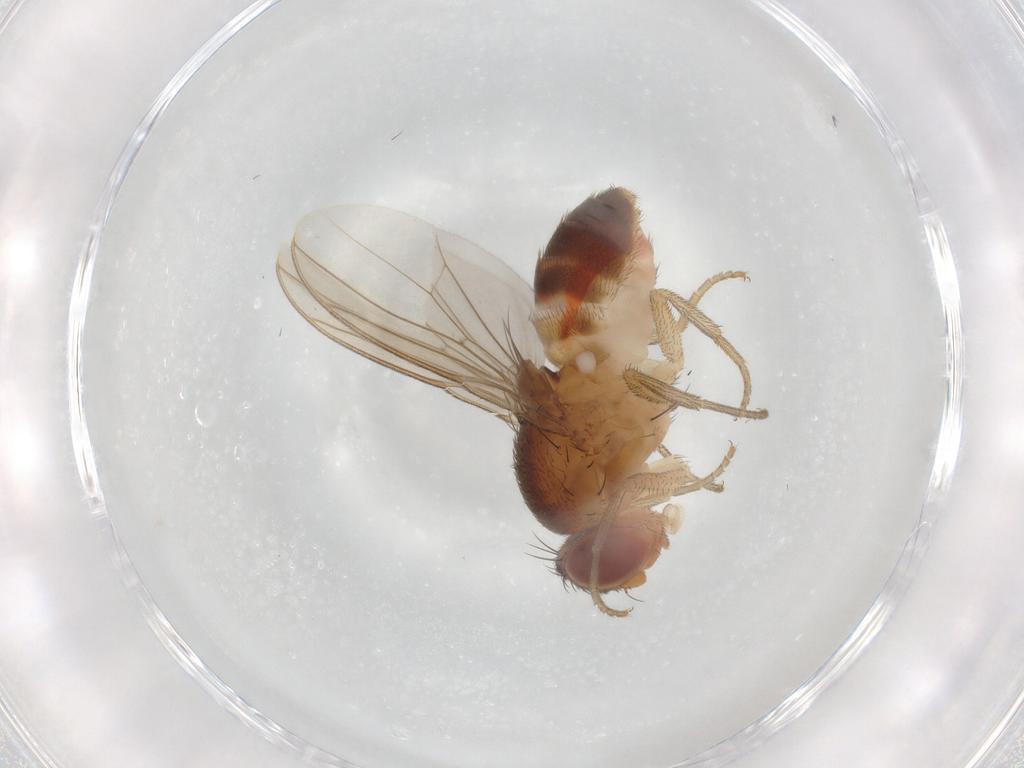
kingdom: Animalia
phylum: Arthropoda
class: Insecta
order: Diptera
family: Drosophilidae
